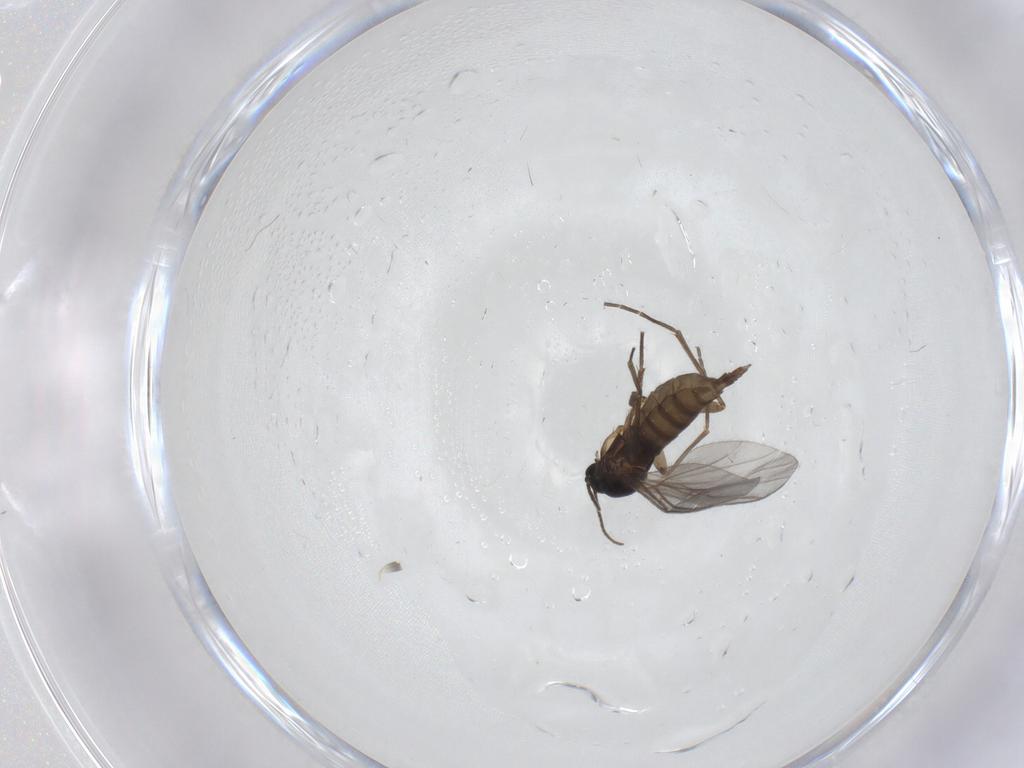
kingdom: Animalia
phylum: Arthropoda
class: Insecta
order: Diptera
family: Sciaridae
